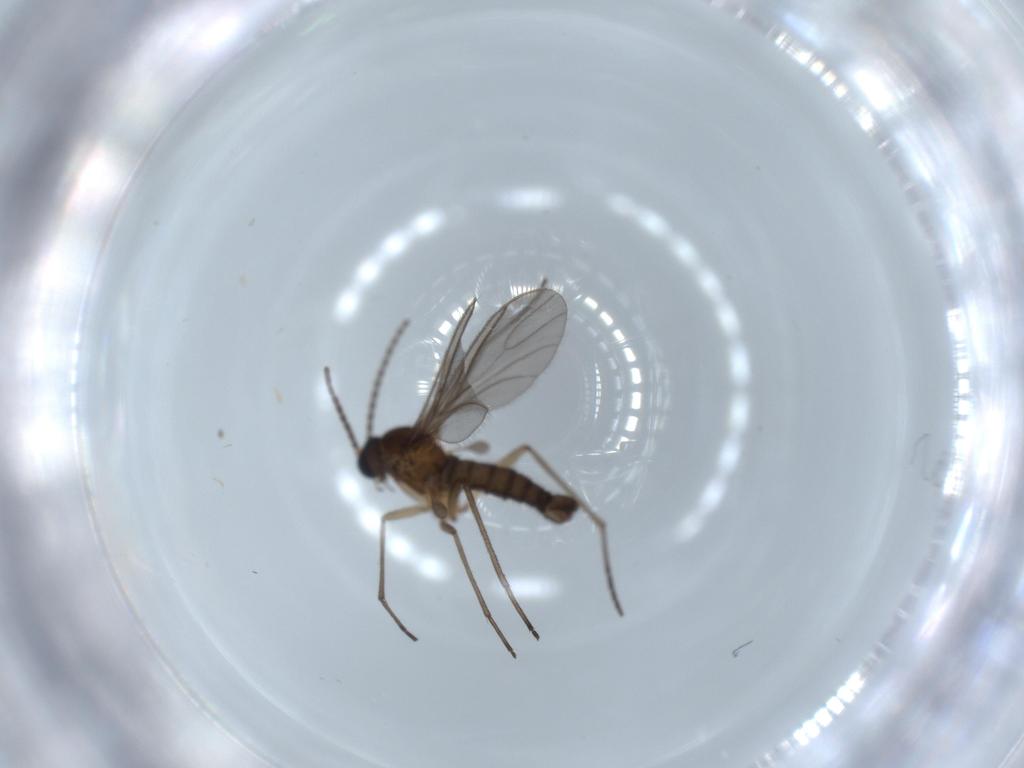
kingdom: Animalia
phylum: Arthropoda
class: Insecta
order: Diptera
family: Sciaridae
